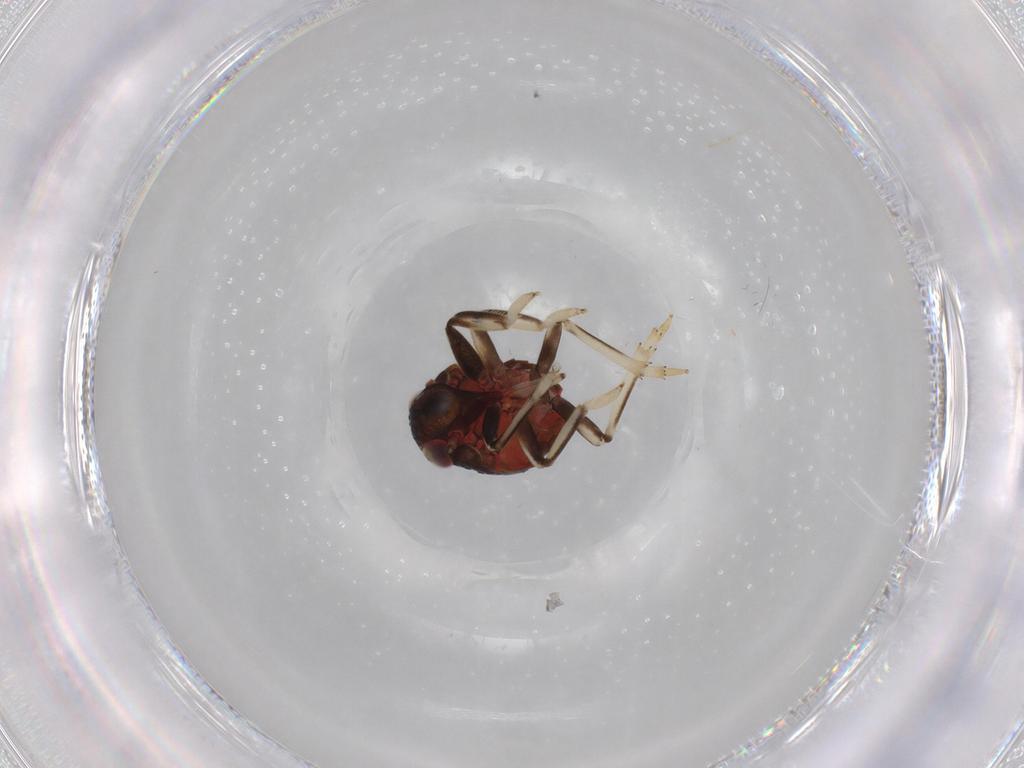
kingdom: Animalia
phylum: Arthropoda
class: Insecta
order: Hemiptera
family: Issidae
